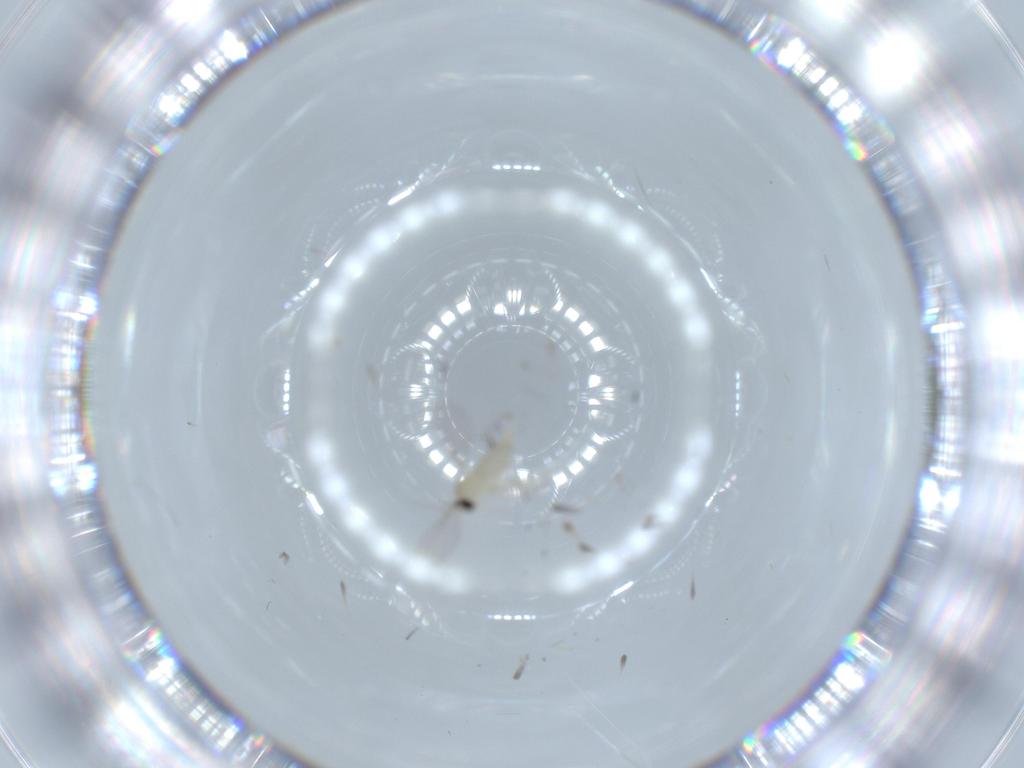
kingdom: Animalia
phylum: Arthropoda
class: Insecta
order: Diptera
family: Cecidomyiidae
